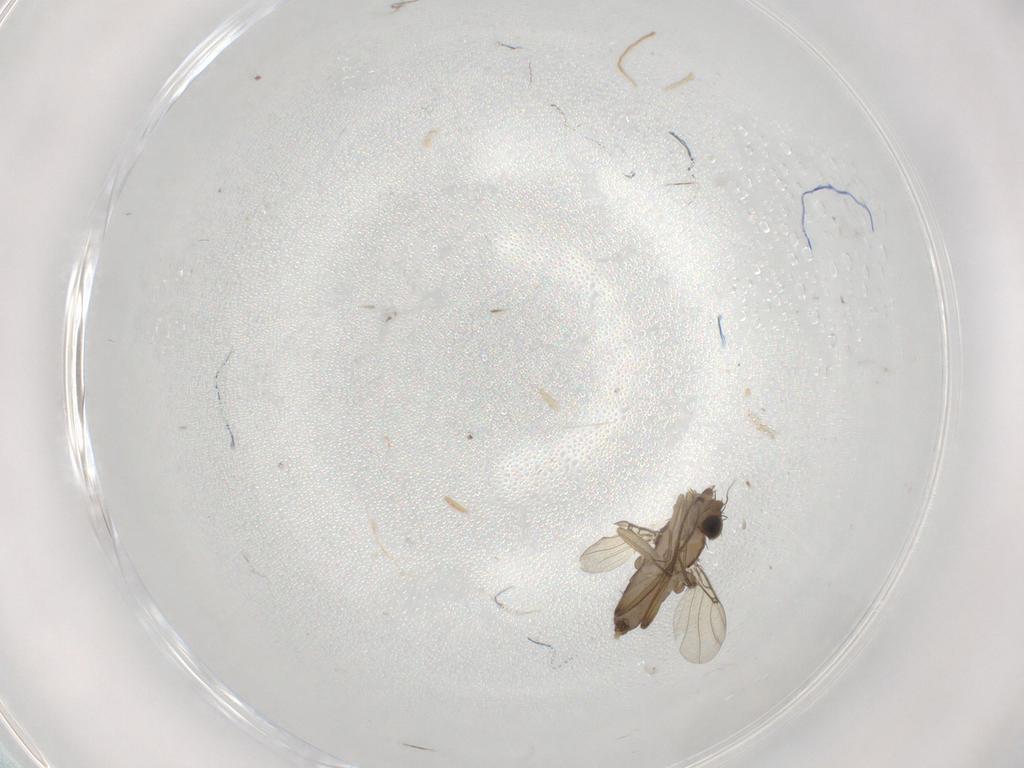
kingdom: Animalia
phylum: Arthropoda
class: Insecta
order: Diptera
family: Phoridae
